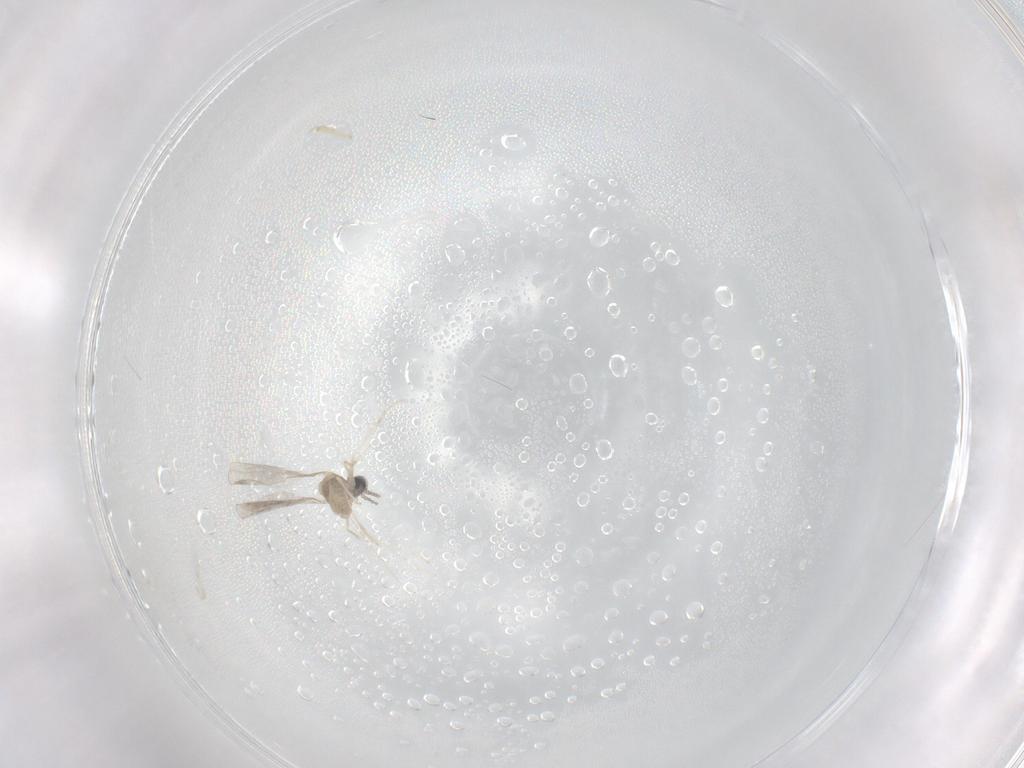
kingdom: Animalia
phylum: Arthropoda
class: Insecta
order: Diptera
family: Cecidomyiidae
